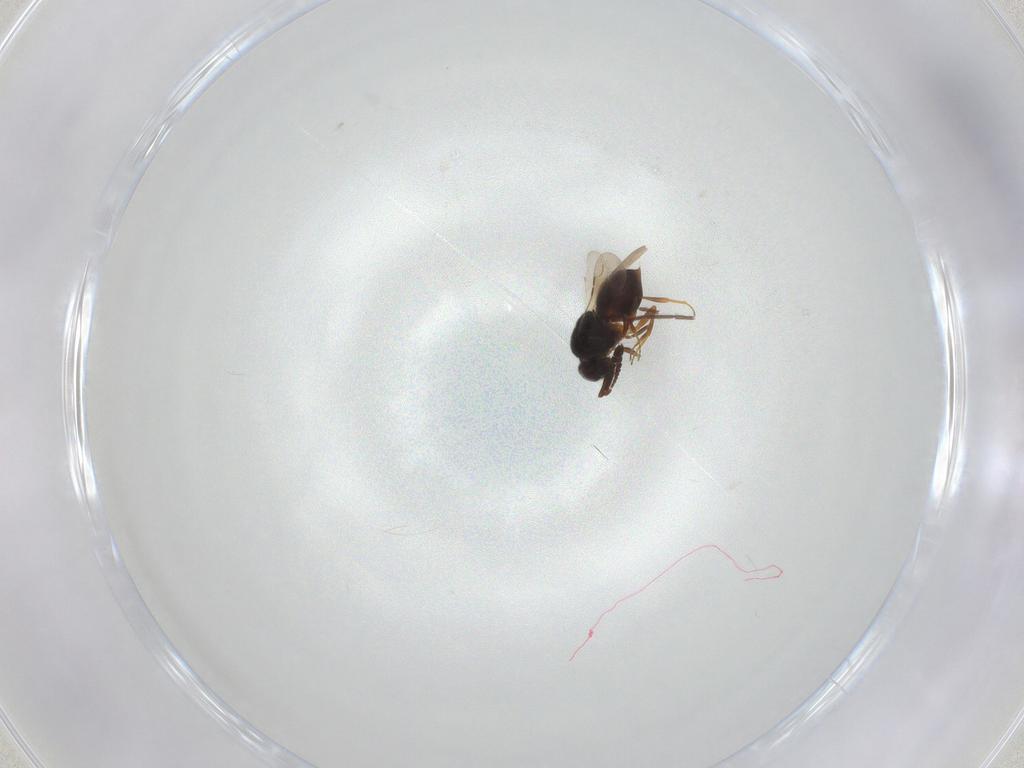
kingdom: Animalia
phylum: Arthropoda
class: Insecta
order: Hymenoptera
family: Ceraphronidae
